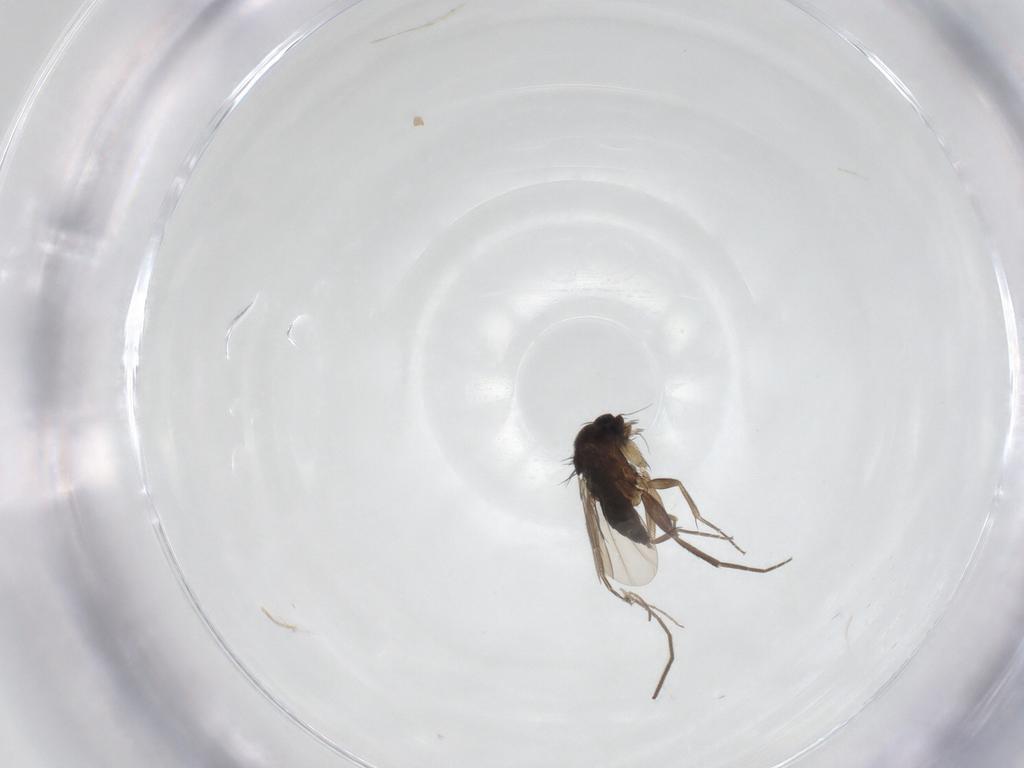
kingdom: Animalia
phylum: Arthropoda
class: Insecta
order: Diptera
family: Phoridae
